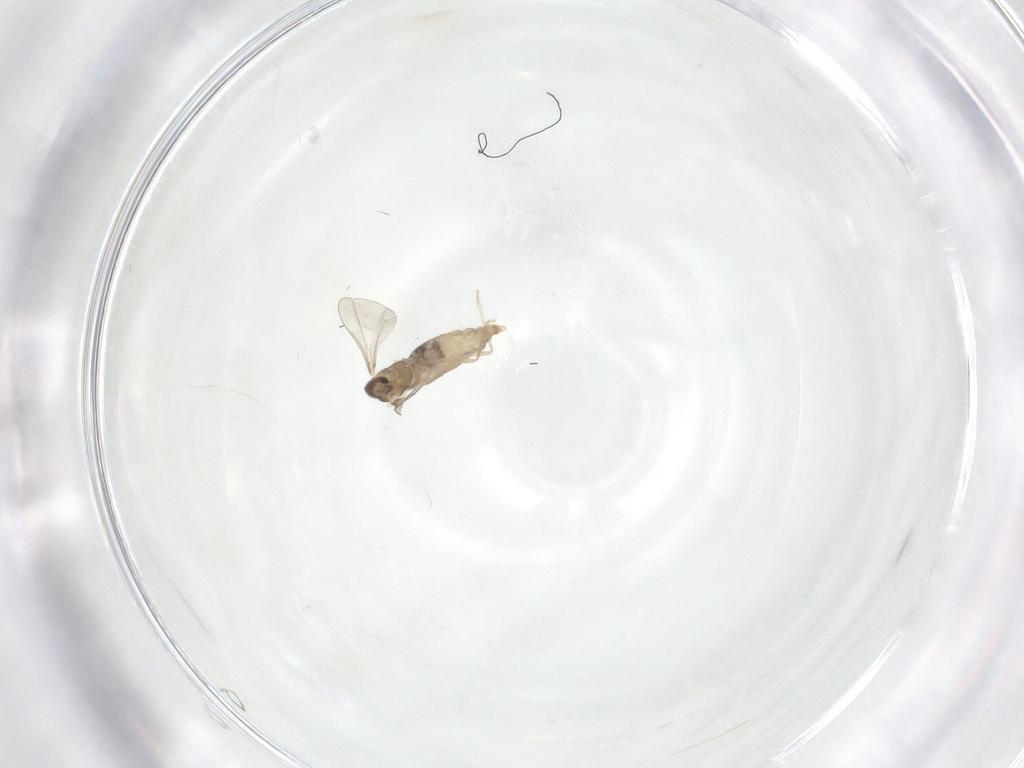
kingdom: Animalia
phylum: Arthropoda
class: Insecta
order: Diptera
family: Cecidomyiidae
